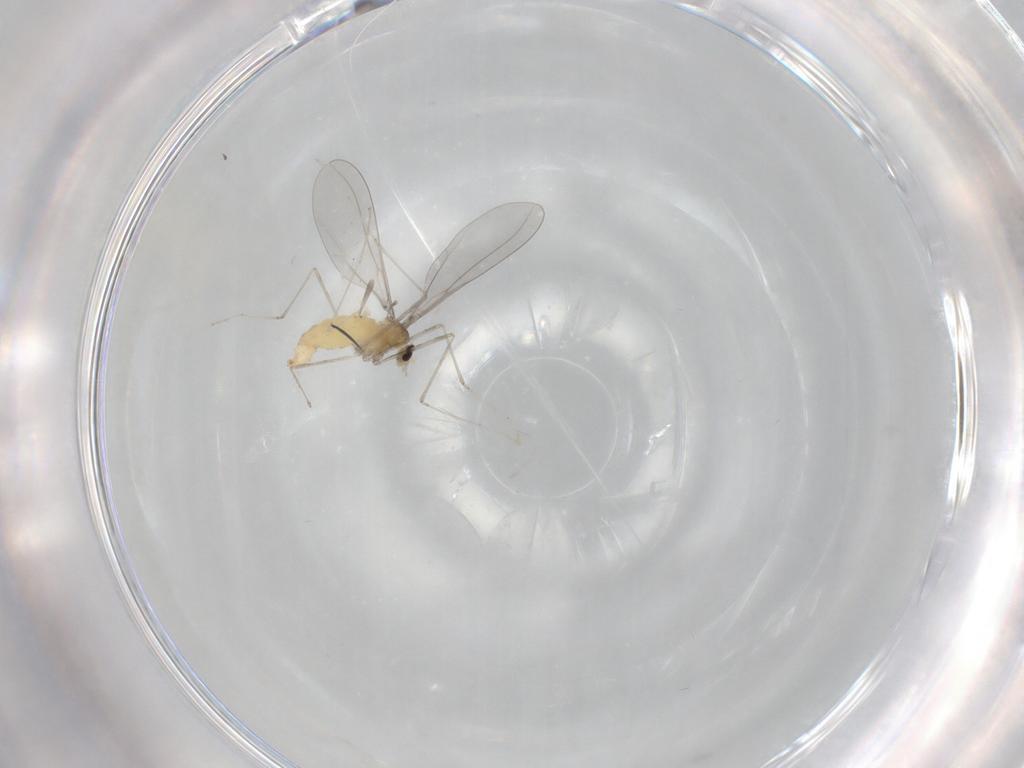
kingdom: Animalia
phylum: Arthropoda
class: Insecta
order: Diptera
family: Cecidomyiidae
